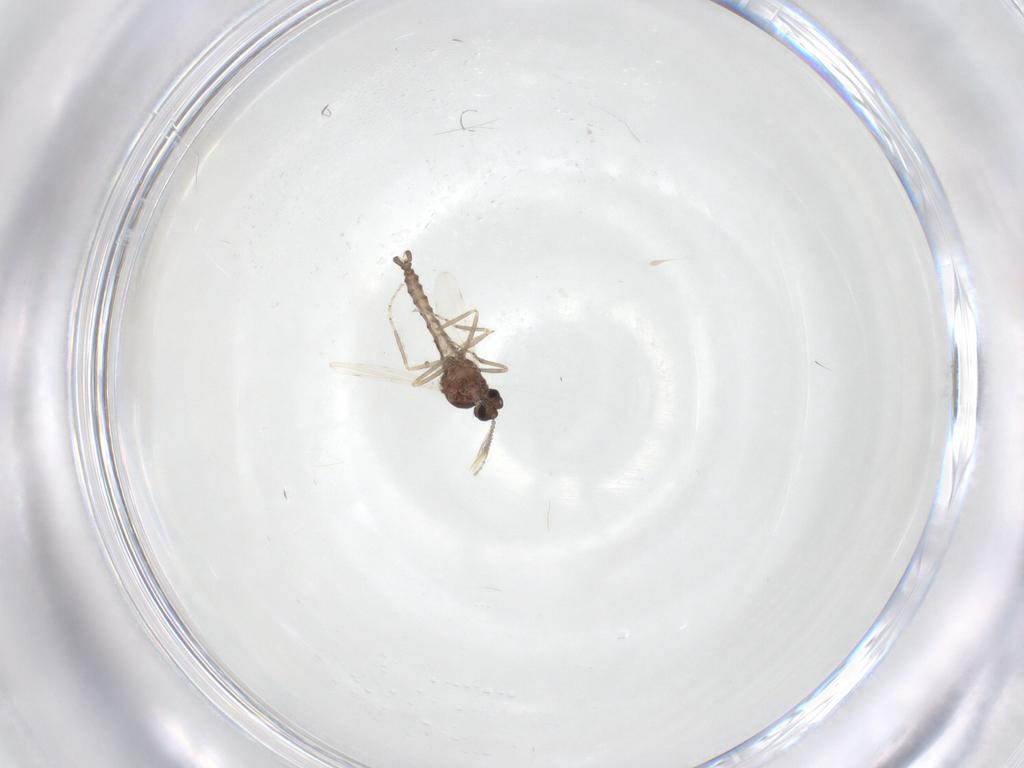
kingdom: Animalia
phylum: Arthropoda
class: Insecta
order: Diptera
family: Ceratopogonidae
